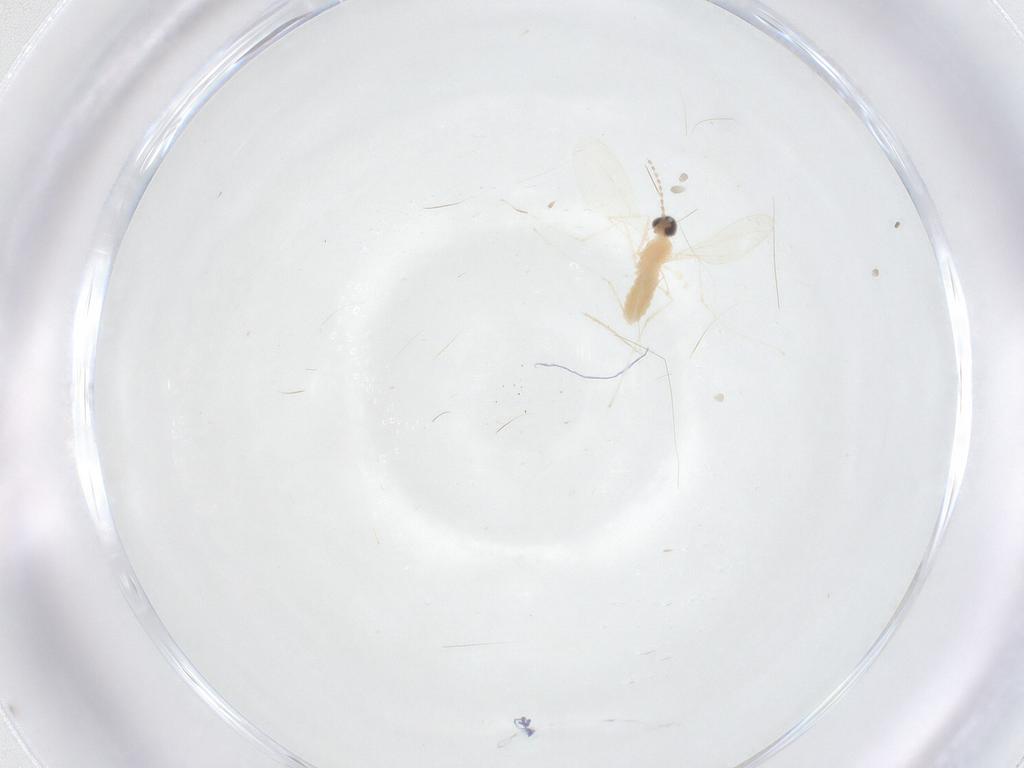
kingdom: Animalia
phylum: Arthropoda
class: Insecta
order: Diptera
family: Cecidomyiidae
